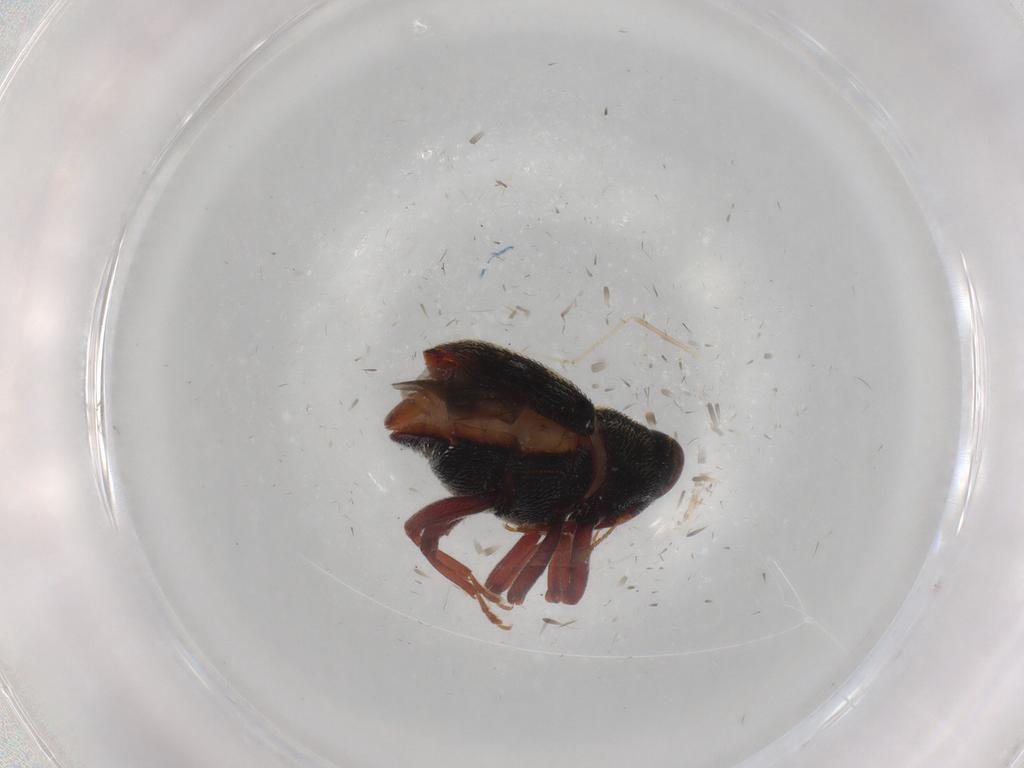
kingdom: Animalia
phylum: Arthropoda
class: Insecta
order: Coleoptera
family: Curculionidae
